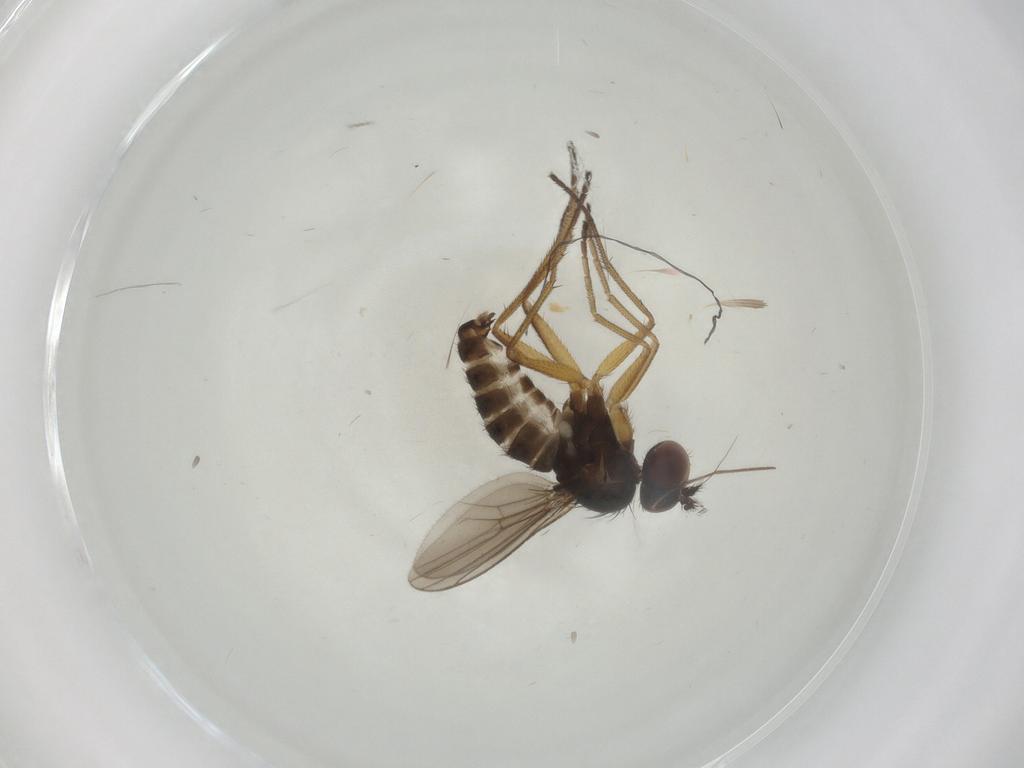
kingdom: Animalia
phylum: Arthropoda
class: Insecta
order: Diptera
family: Dolichopodidae
